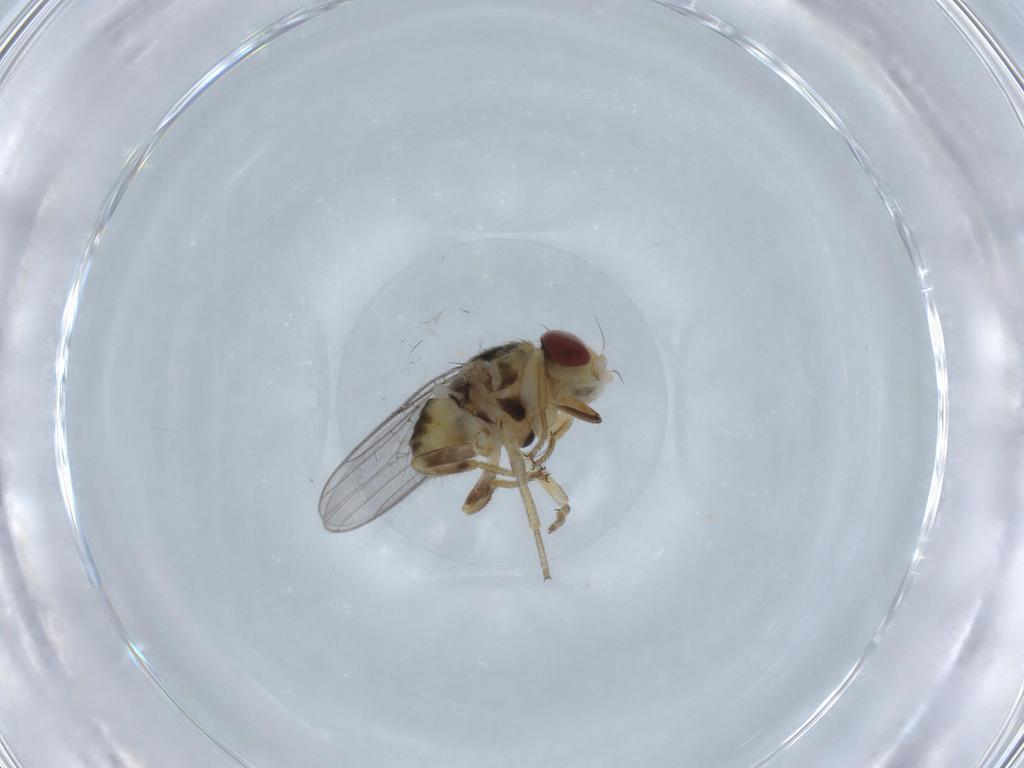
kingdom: Animalia
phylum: Arthropoda
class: Insecta
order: Diptera
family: Chloropidae
